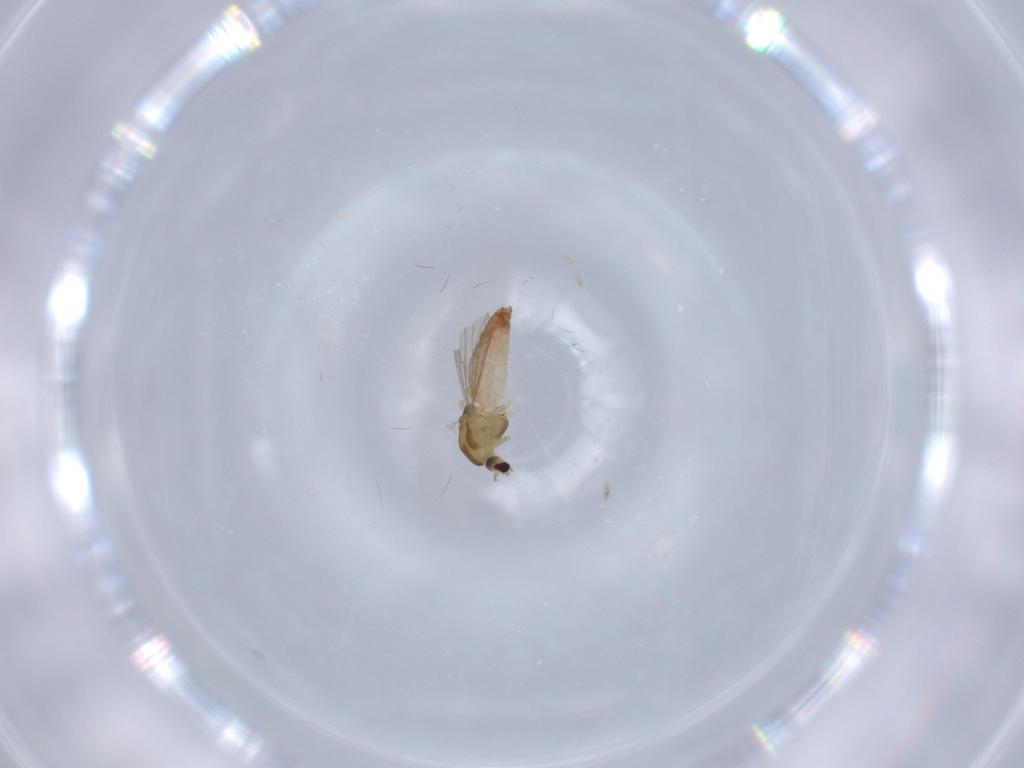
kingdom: Animalia
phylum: Arthropoda
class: Insecta
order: Diptera
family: Chironomidae
